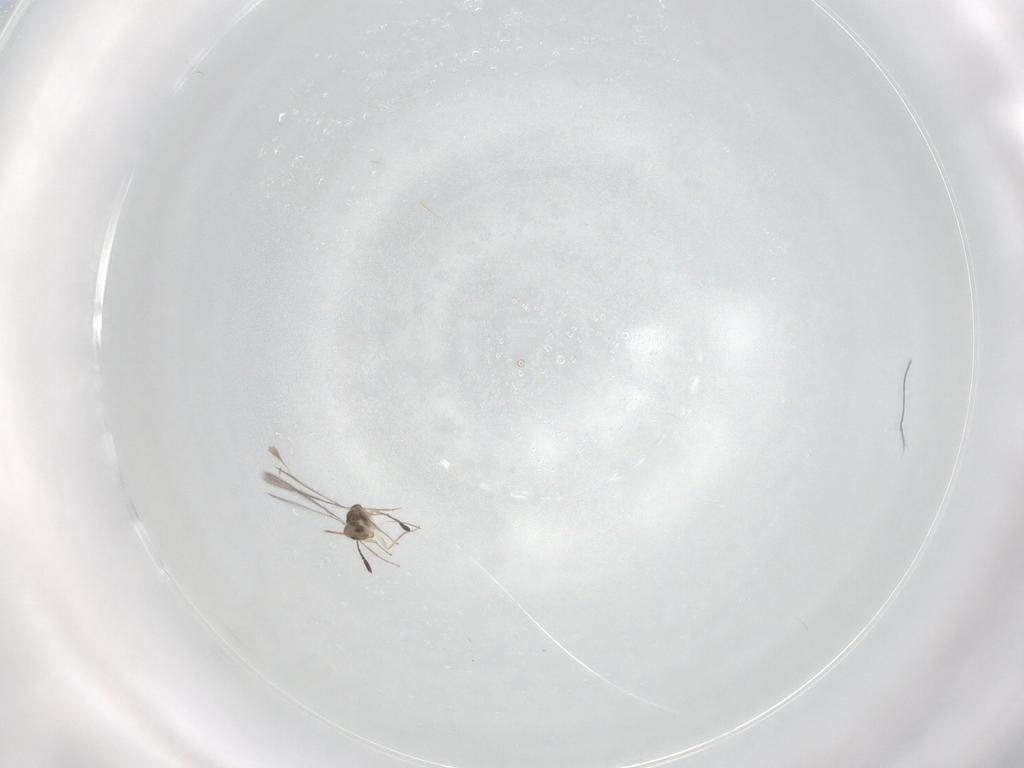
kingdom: Animalia
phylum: Arthropoda
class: Insecta
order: Hymenoptera
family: Mymaridae
